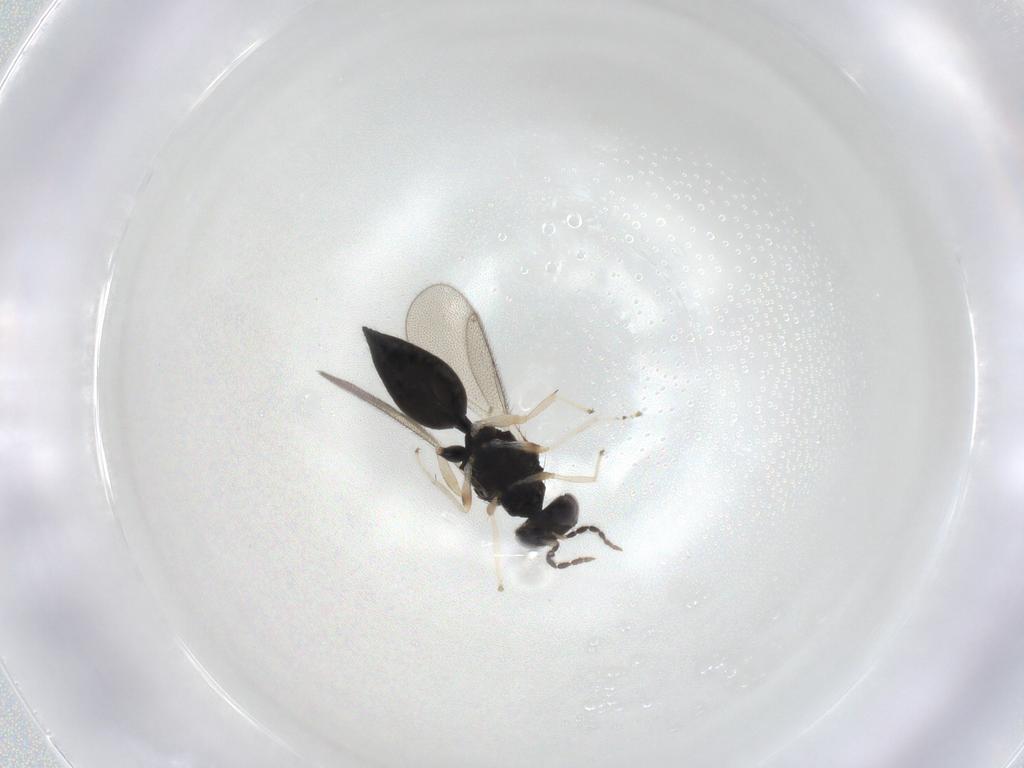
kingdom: Animalia
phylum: Arthropoda
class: Insecta
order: Hymenoptera
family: Eulophidae
